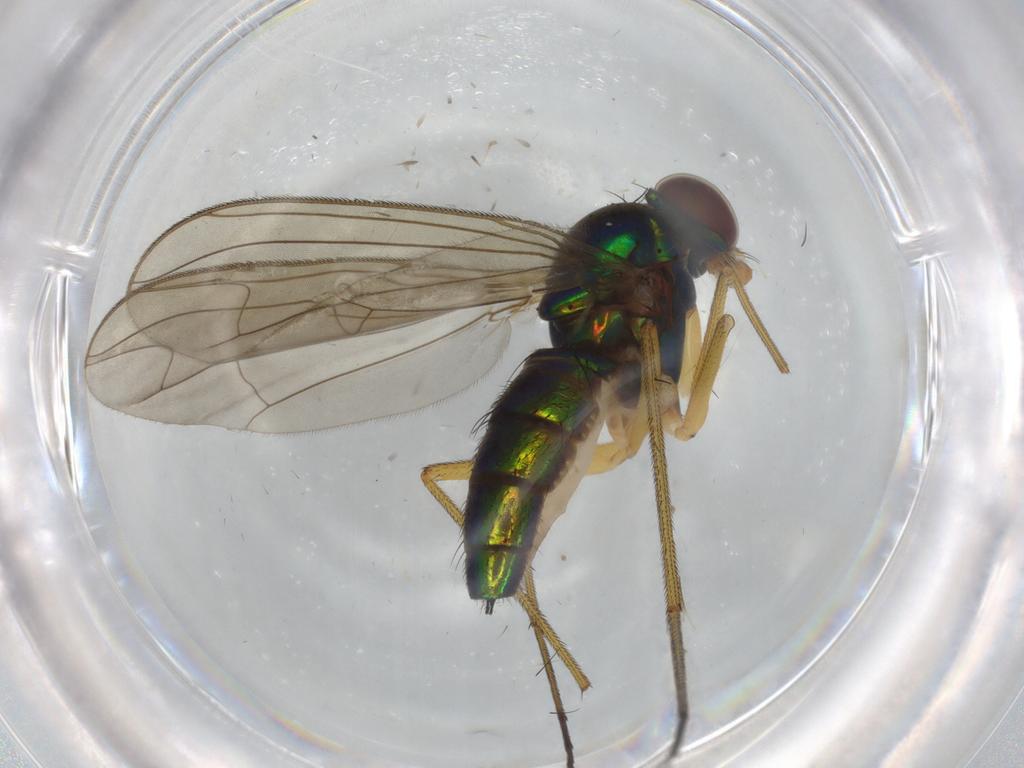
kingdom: Animalia
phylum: Arthropoda
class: Insecta
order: Diptera
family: Dolichopodidae
